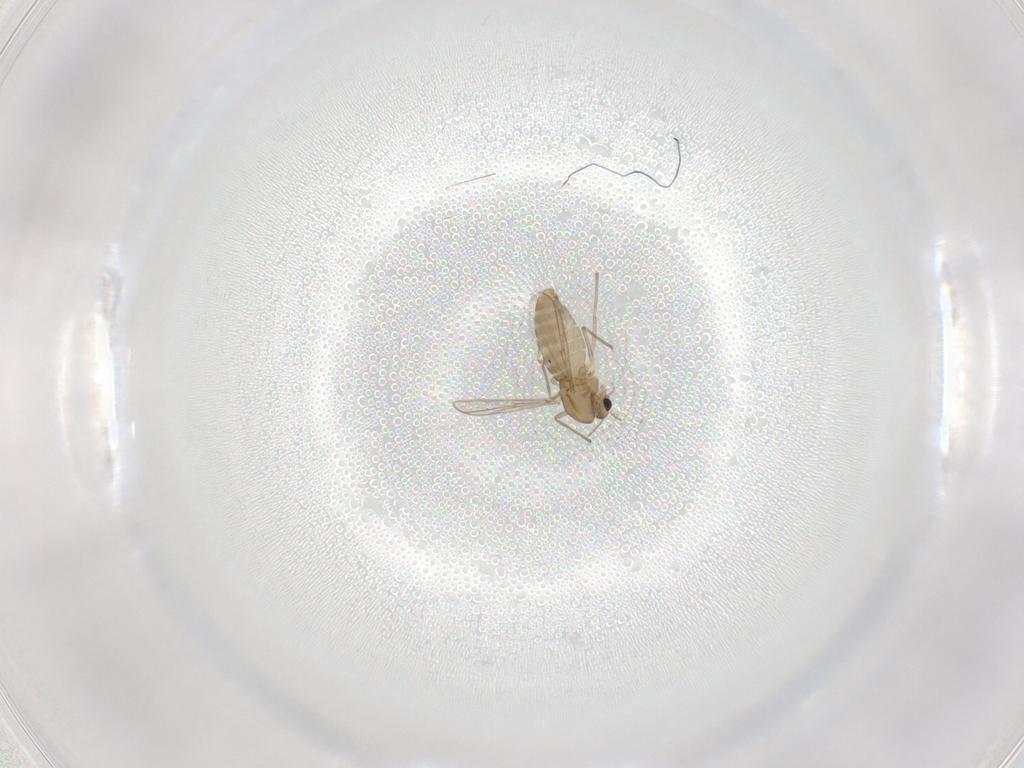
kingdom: Animalia
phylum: Arthropoda
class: Insecta
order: Diptera
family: Chironomidae
